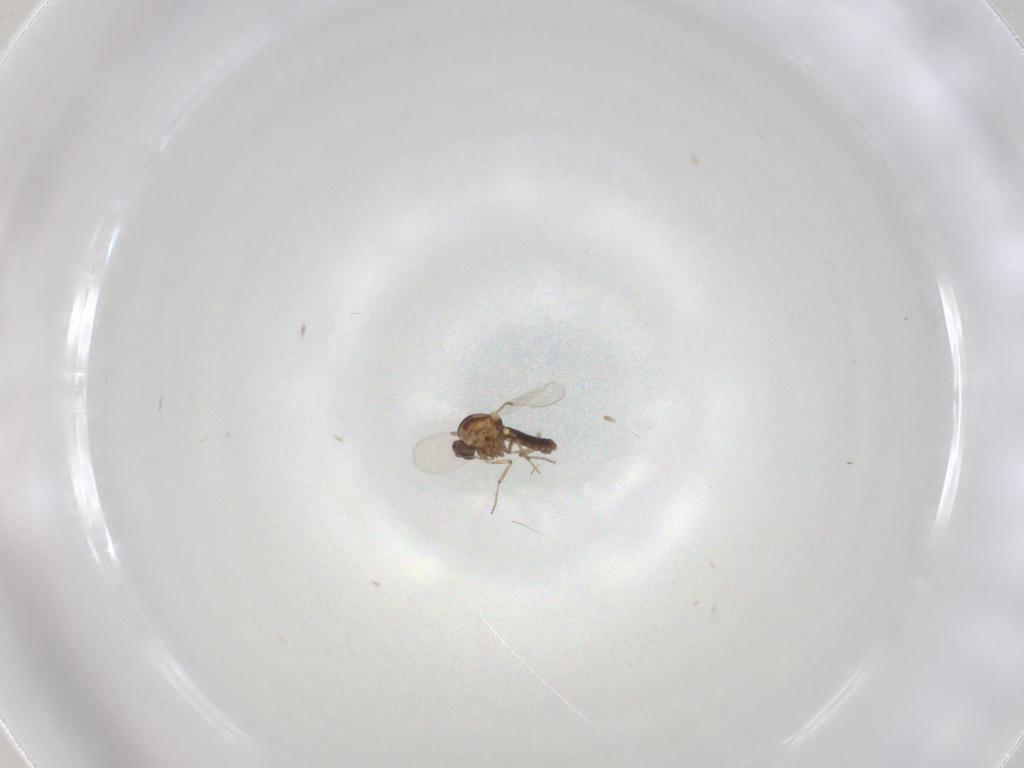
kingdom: Animalia
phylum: Arthropoda
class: Insecta
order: Diptera
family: Ceratopogonidae
